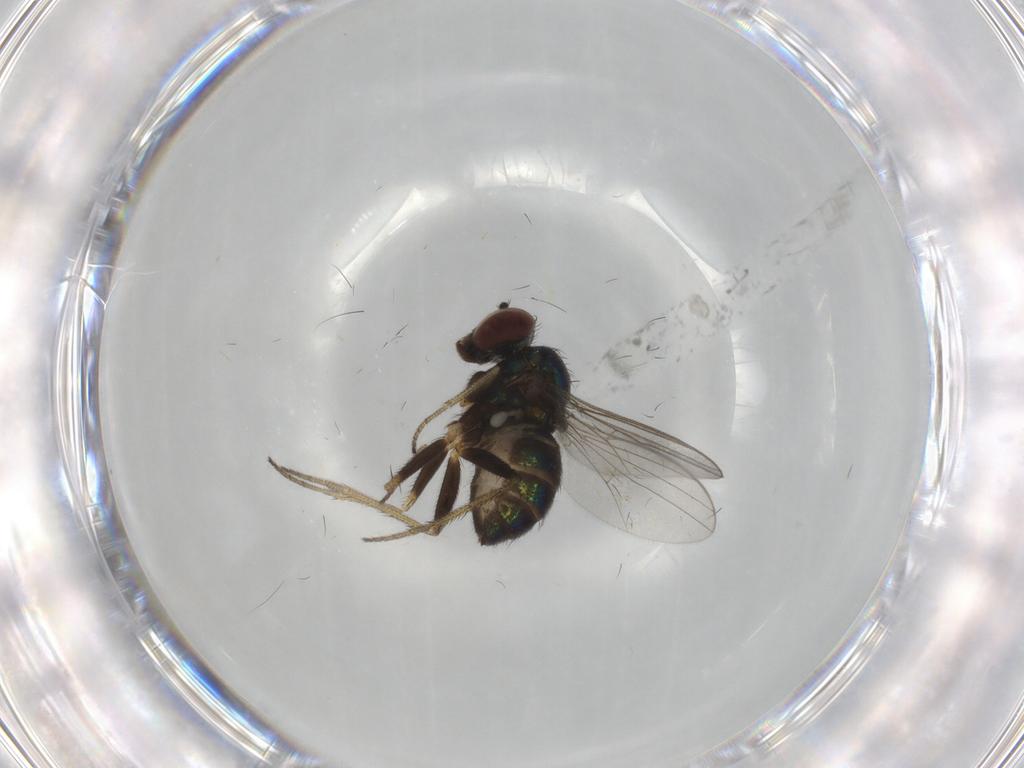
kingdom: Animalia
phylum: Arthropoda
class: Insecta
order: Diptera
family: Dolichopodidae
